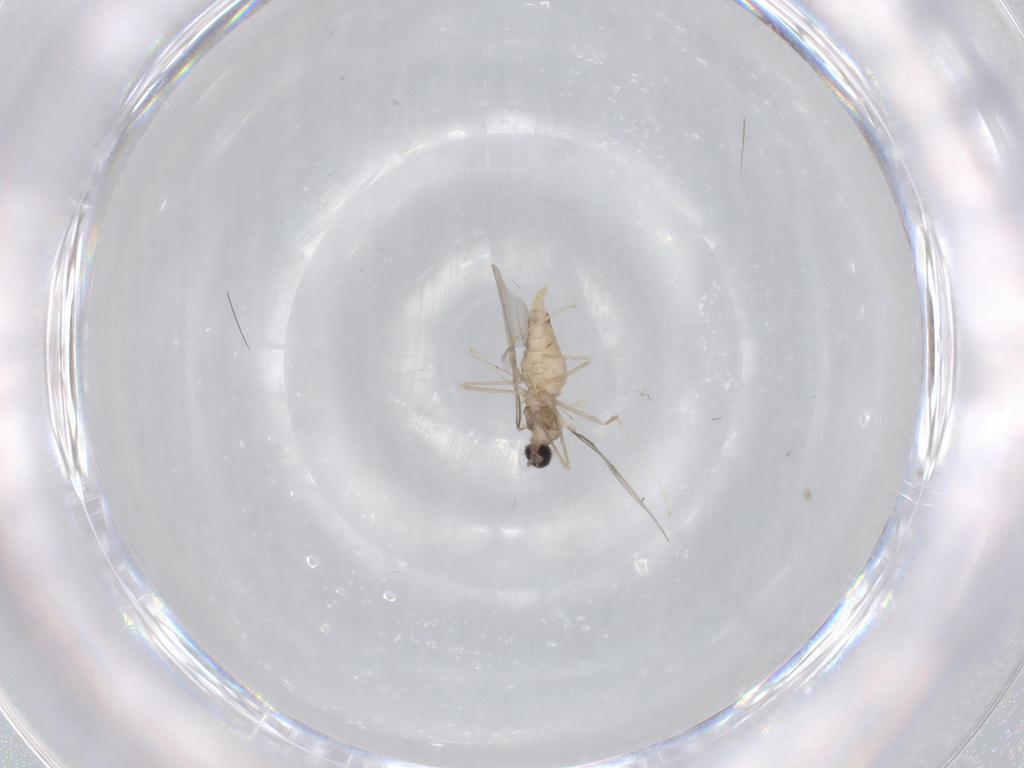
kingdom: Animalia
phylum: Arthropoda
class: Insecta
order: Diptera
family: Cecidomyiidae
